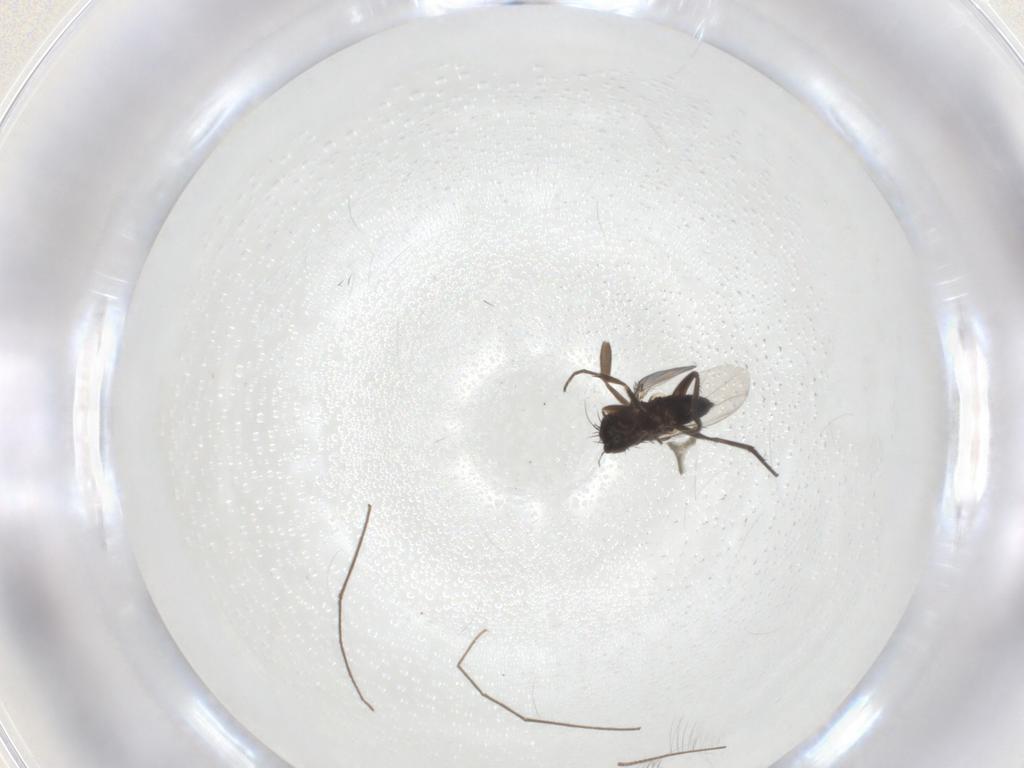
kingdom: Animalia
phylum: Arthropoda
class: Insecta
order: Diptera
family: Phoridae
